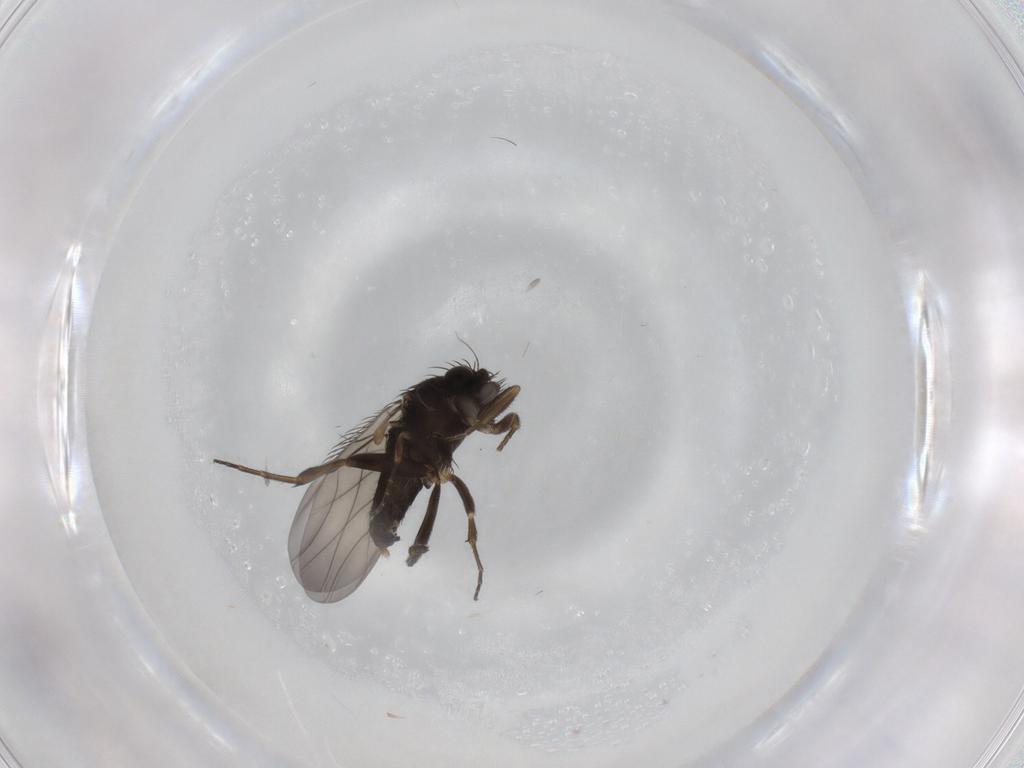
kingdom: Animalia
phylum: Arthropoda
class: Insecta
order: Diptera
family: Phoridae
